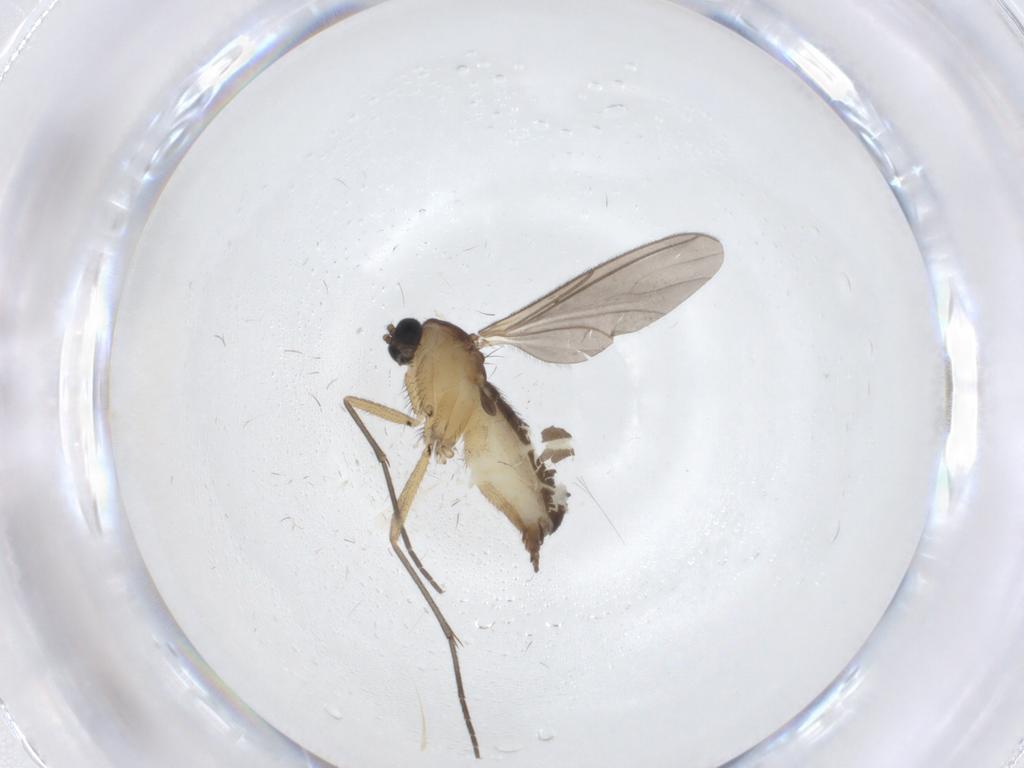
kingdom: Animalia
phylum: Arthropoda
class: Insecta
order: Diptera
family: Sciaridae
